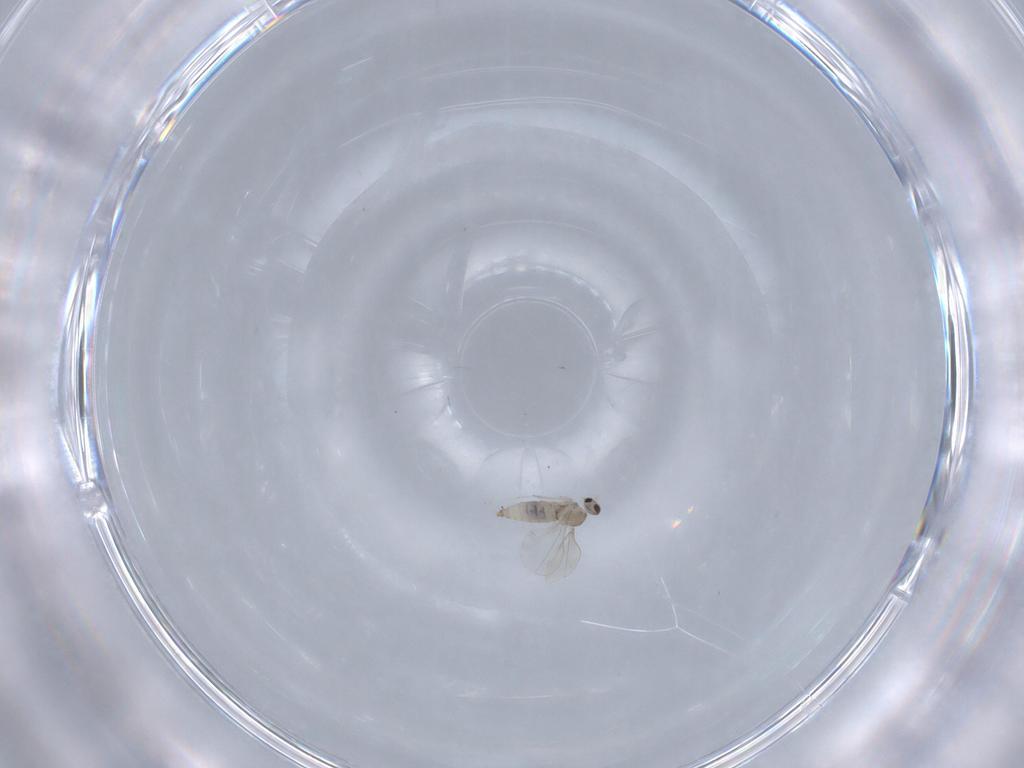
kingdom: Animalia
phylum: Arthropoda
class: Insecta
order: Diptera
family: Cecidomyiidae
